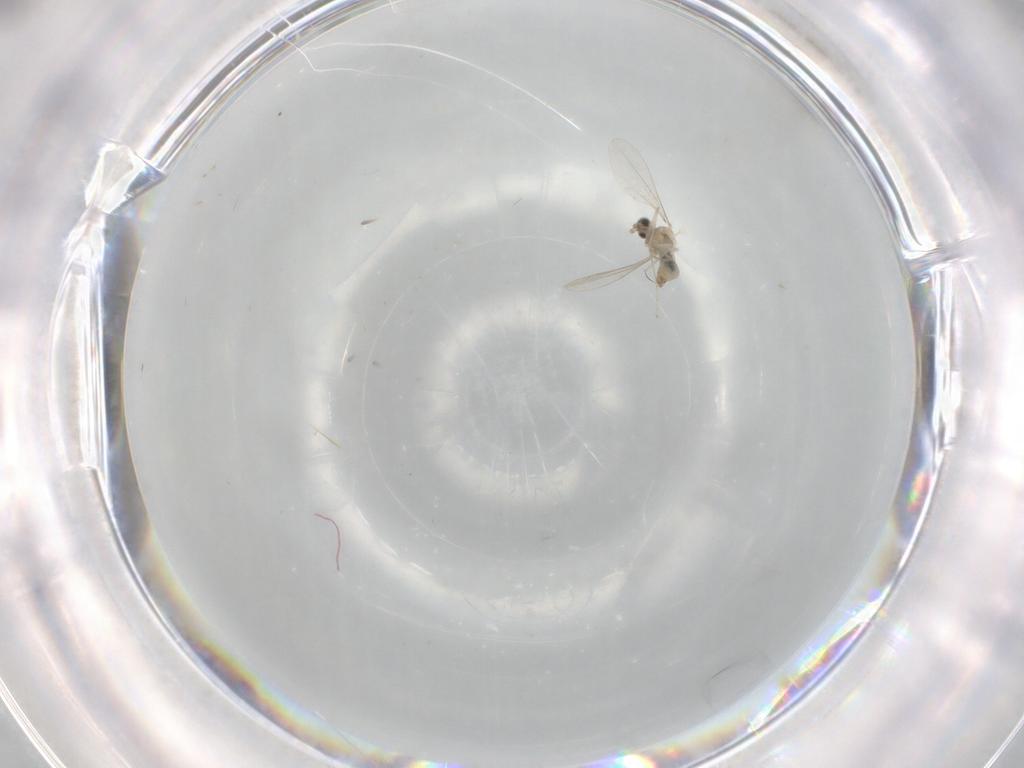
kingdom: Animalia
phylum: Arthropoda
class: Insecta
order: Diptera
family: Cecidomyiidae
